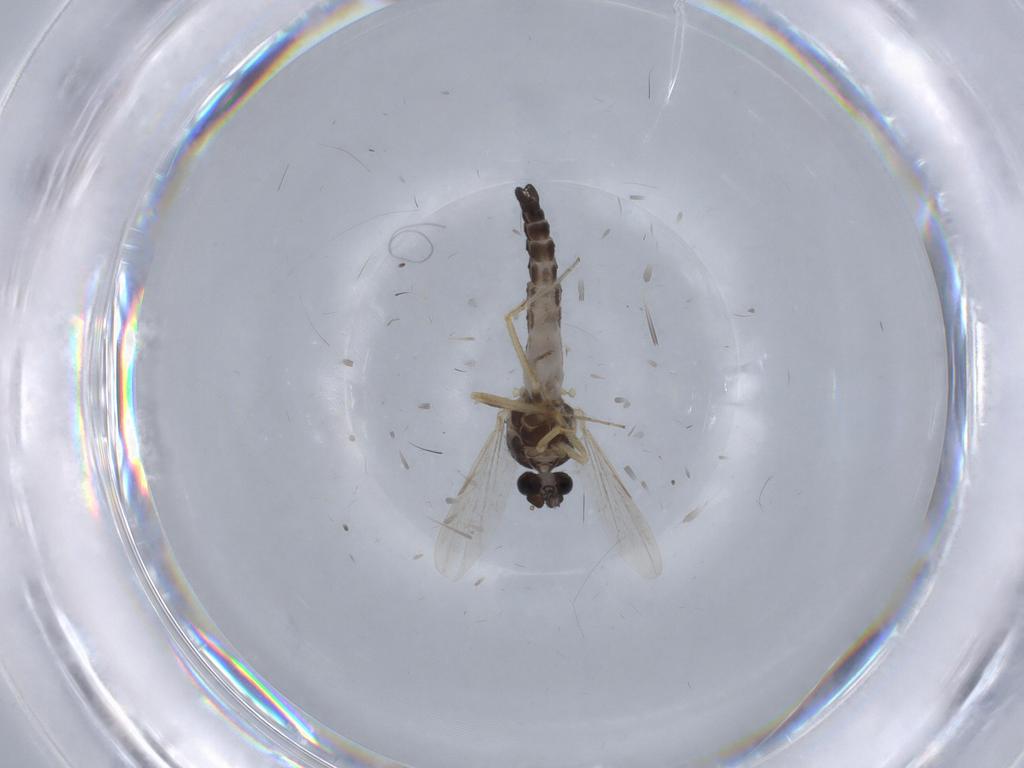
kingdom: Animalia
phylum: Arthropoda
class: Insecta
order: Diptera
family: Ceratopogonidae
